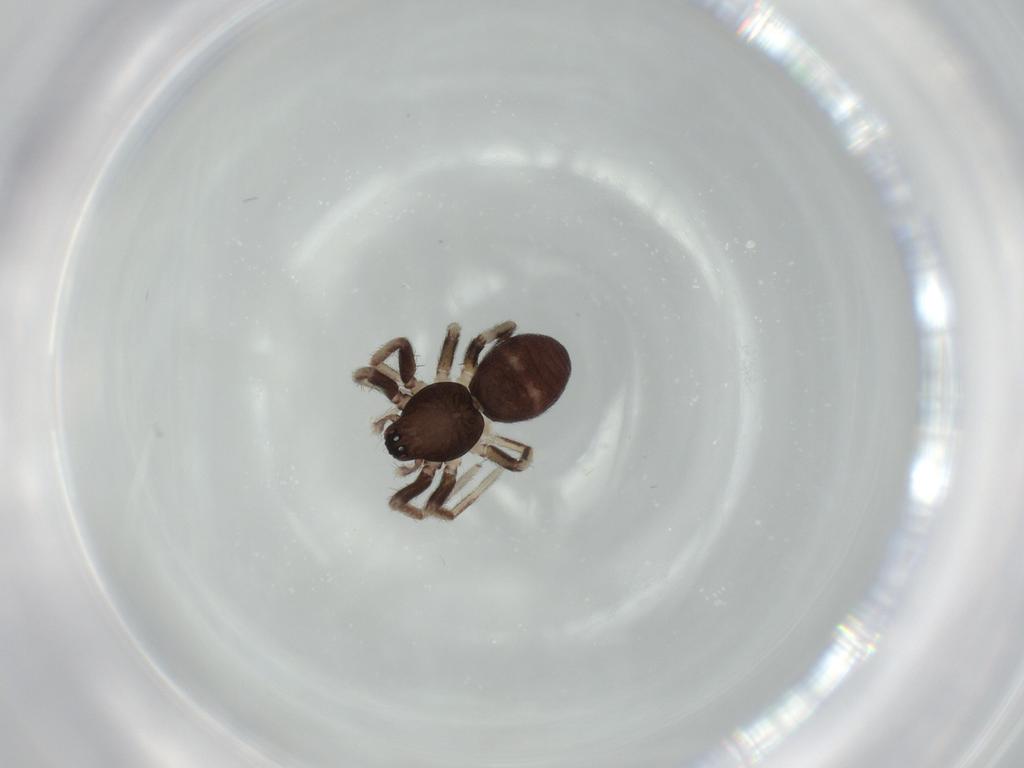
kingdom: Animalia
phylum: Arthropoda
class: Arachnida
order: Araneae
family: Corinnidae
